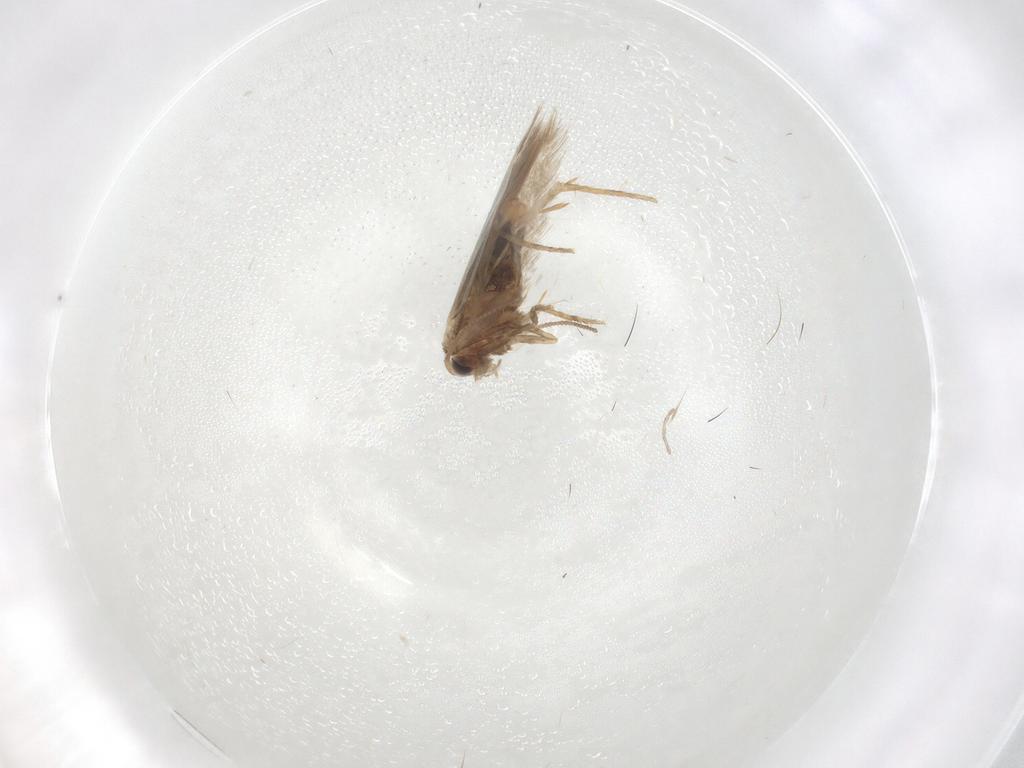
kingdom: Animalia
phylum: Arthropoda
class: Insecta
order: Lepidoptera
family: Nepticulidae
